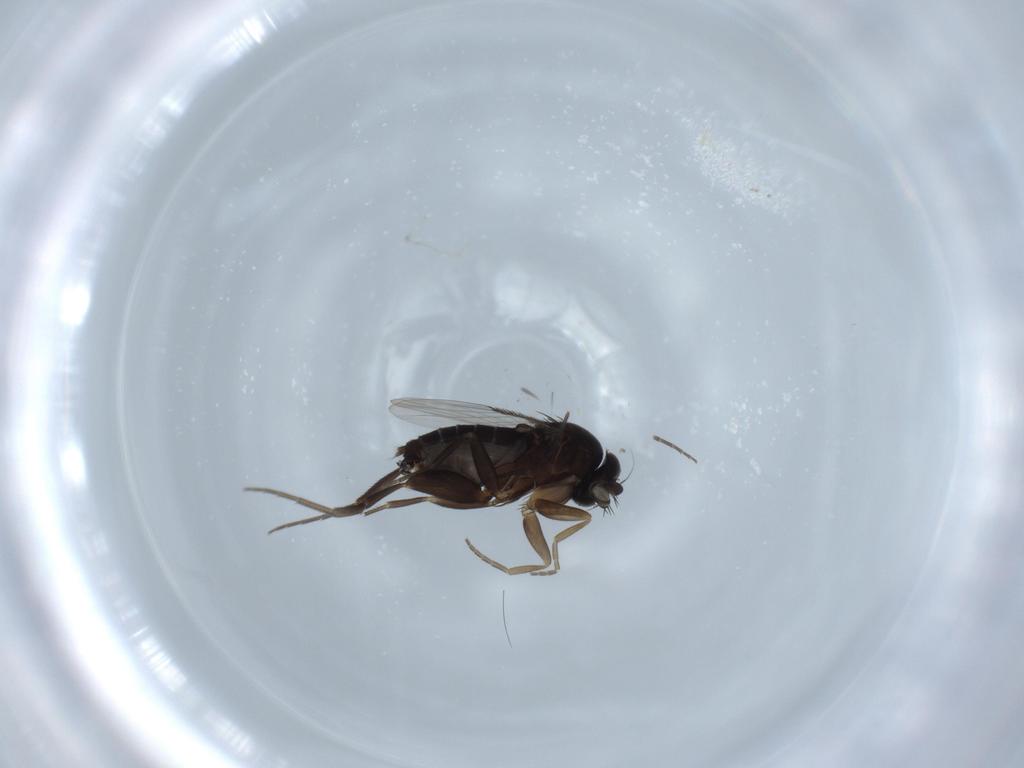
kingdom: Animalia
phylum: Arthropoda
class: Insecta
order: Diptera
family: Phoridae
